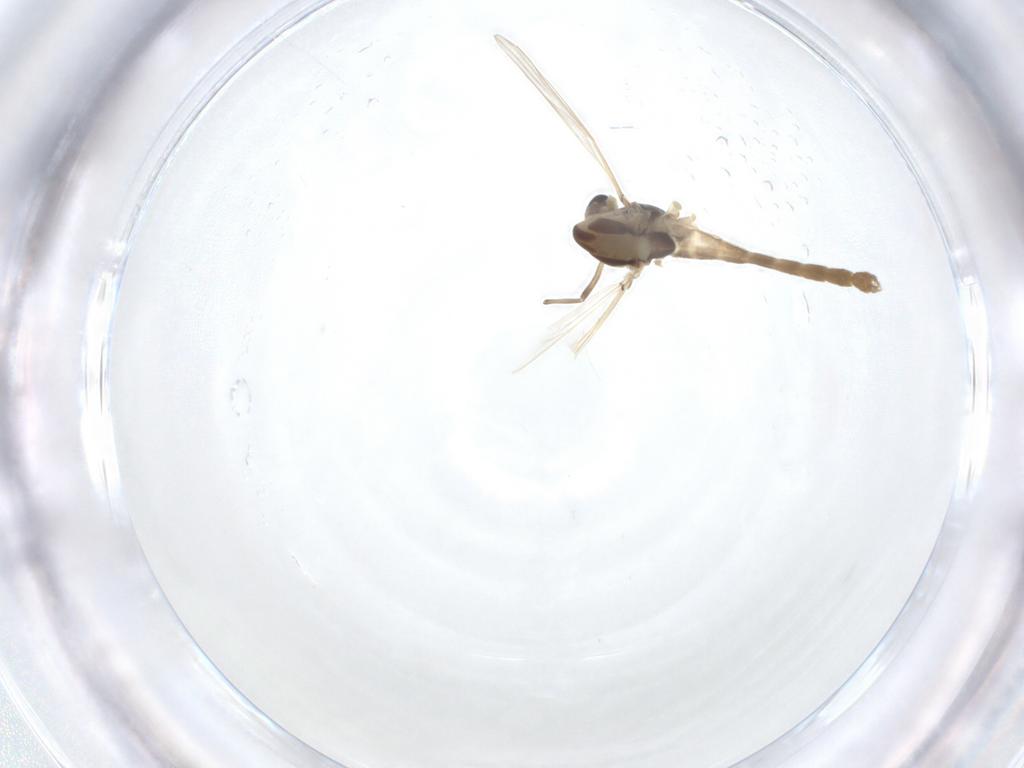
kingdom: Animalia
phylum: Arthropoda
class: Insecta
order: Diptera
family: Chironomidae
